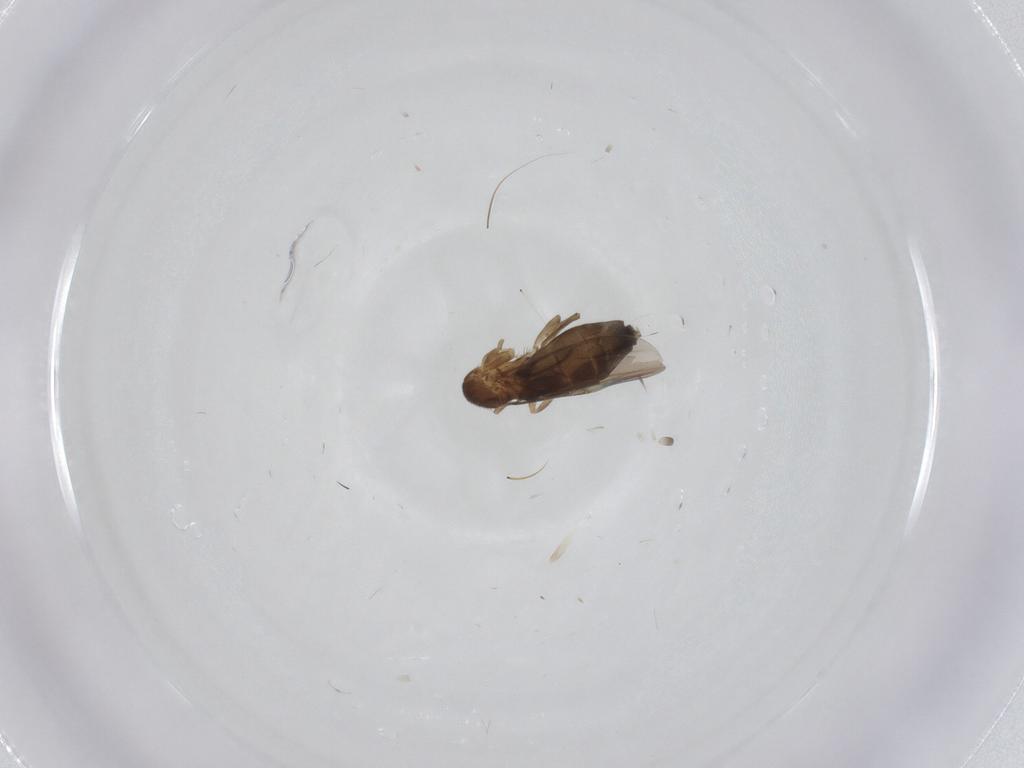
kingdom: Animalia
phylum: Arthropoda
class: Insecta
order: Diptera
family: Phoridae
